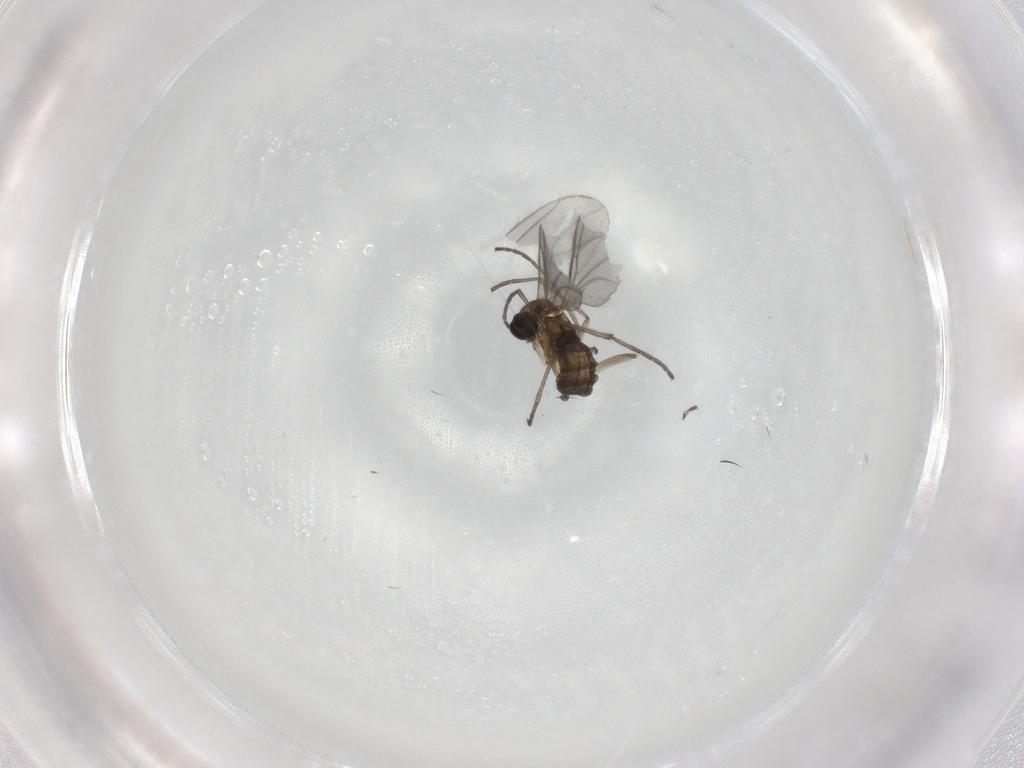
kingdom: Animalia
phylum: Arthropoda
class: Insecta
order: Diptera
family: Sciaridae
